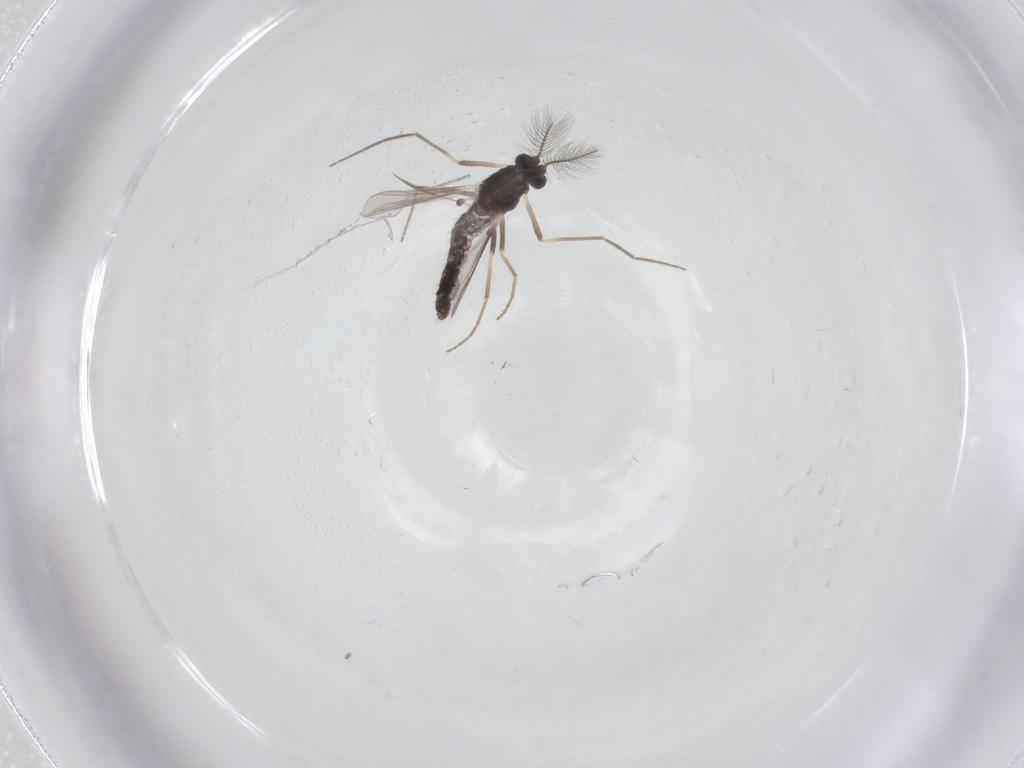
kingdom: Animalia
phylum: Arthropoda
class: Insecta
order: Diptera
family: Chironomidae
